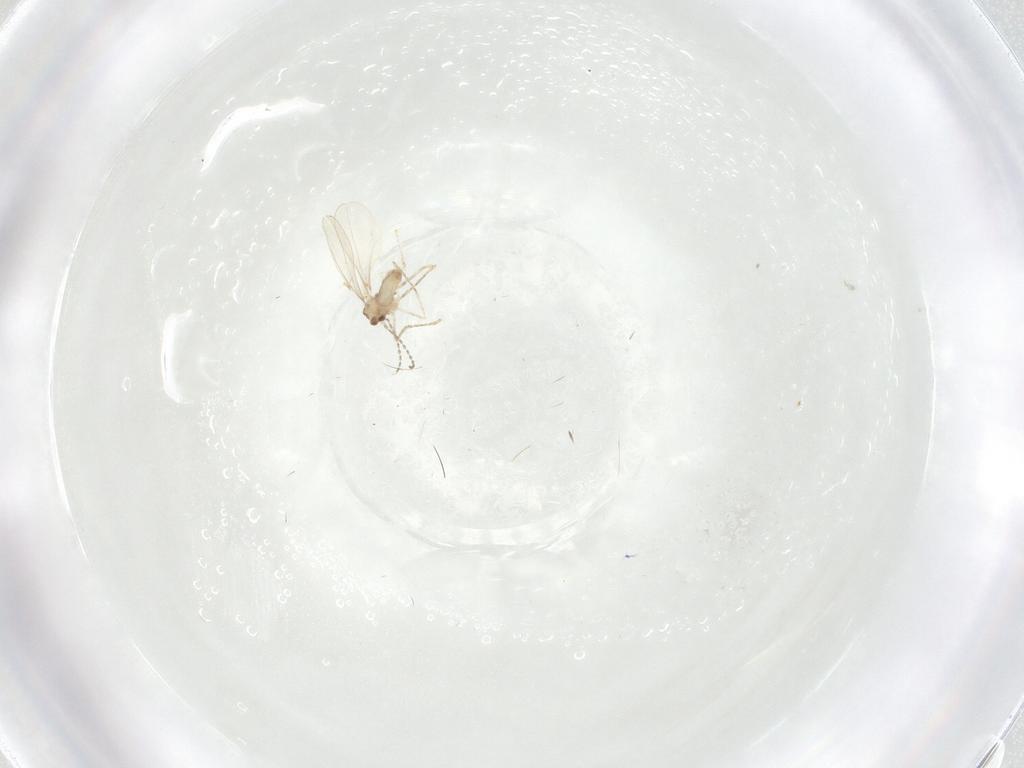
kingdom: Animalia
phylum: Arthropoda
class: Insecta
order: Diptera
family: Cecidomyiidae
